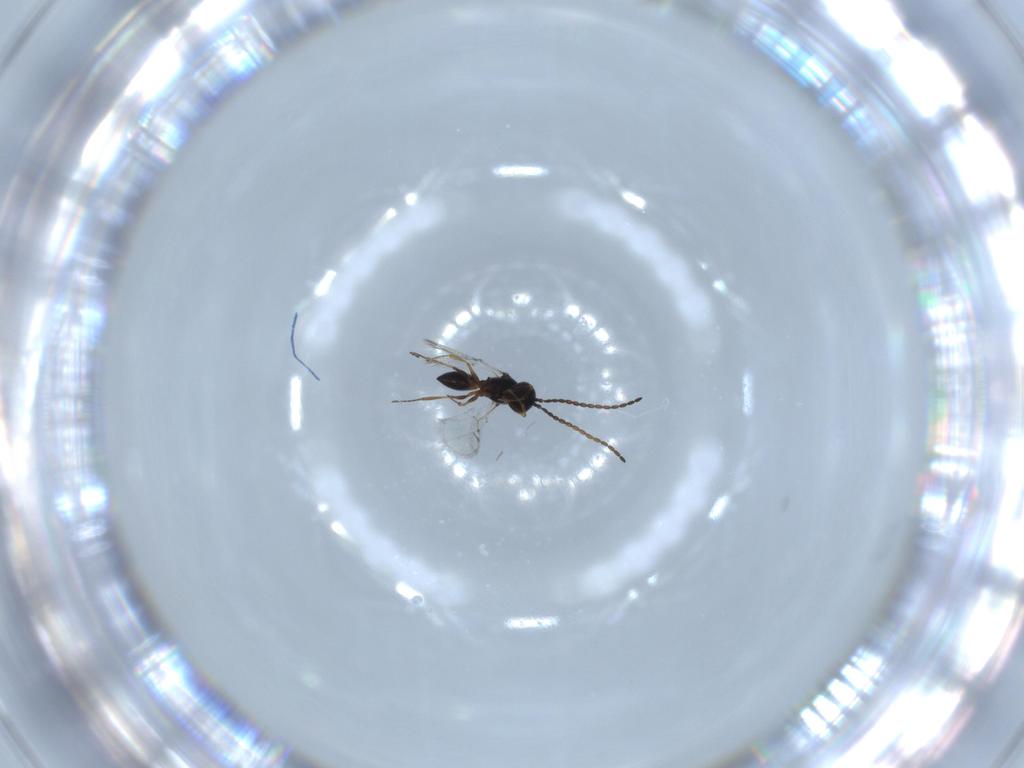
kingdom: Animalia
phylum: Arthropoda
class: Insecta
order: Hymenoptera
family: Figitidae
